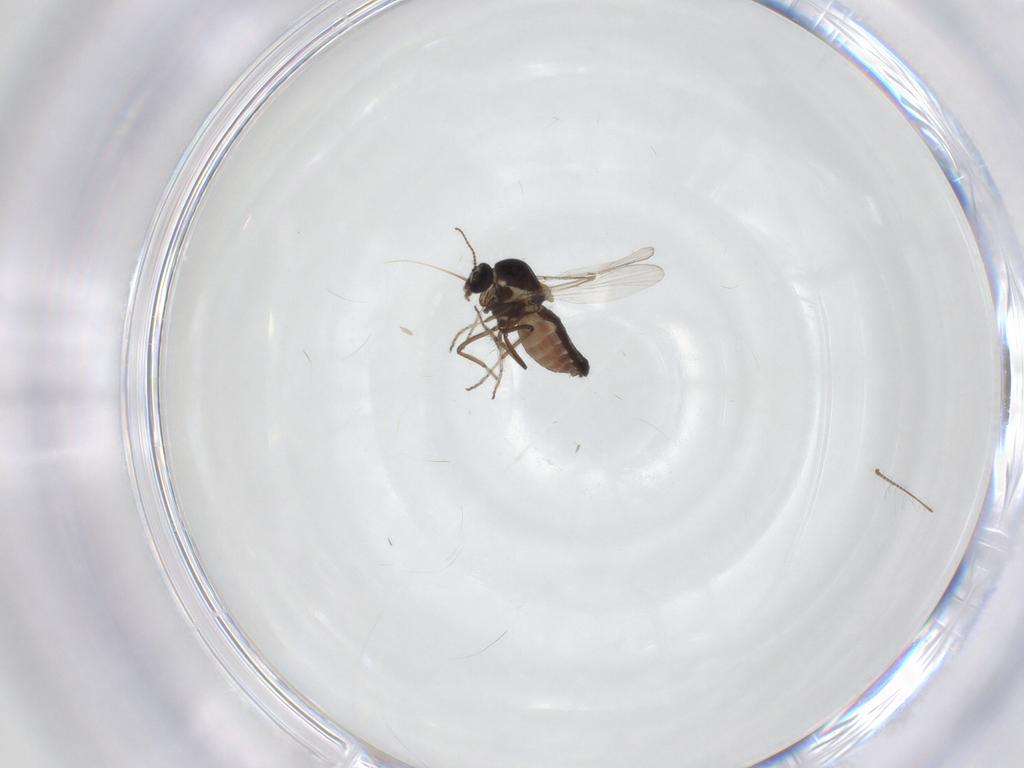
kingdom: Animalia
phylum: Arthropoda
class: Insecta
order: Diptera
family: Ceratopogonidae
